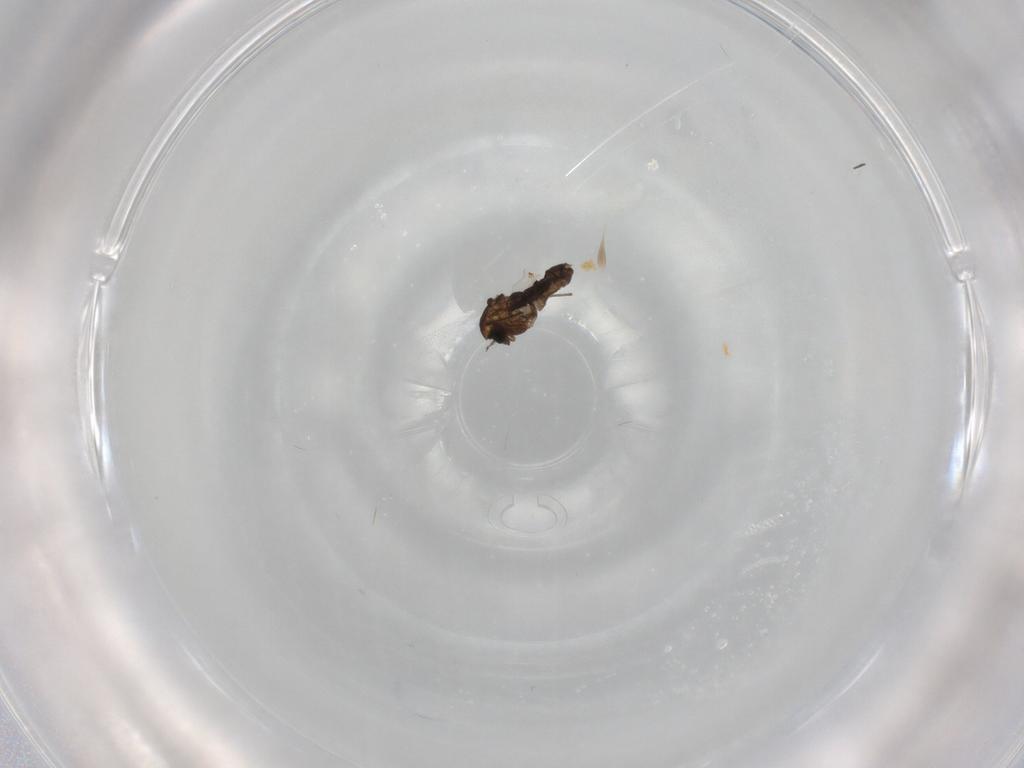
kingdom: Animalia
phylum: Arthropoda
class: Insecta
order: Diptera
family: Chironomidae
